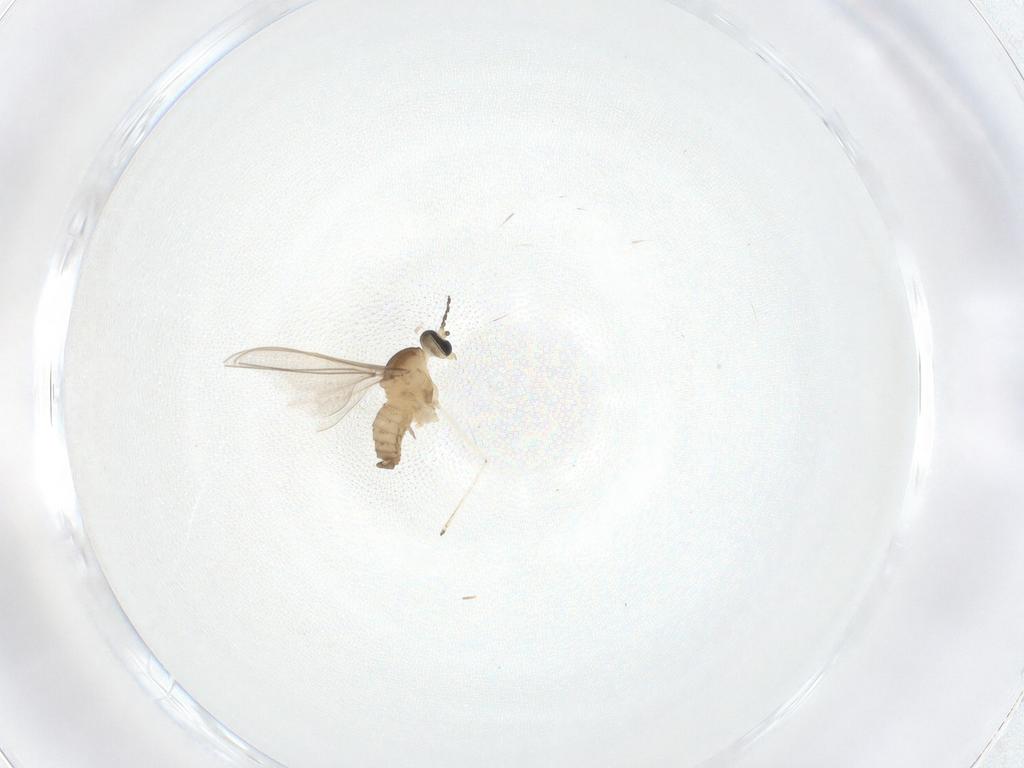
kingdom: Animalia
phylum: Arthropoda
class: Insecta
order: Diptera
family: Cecidomyiidae
